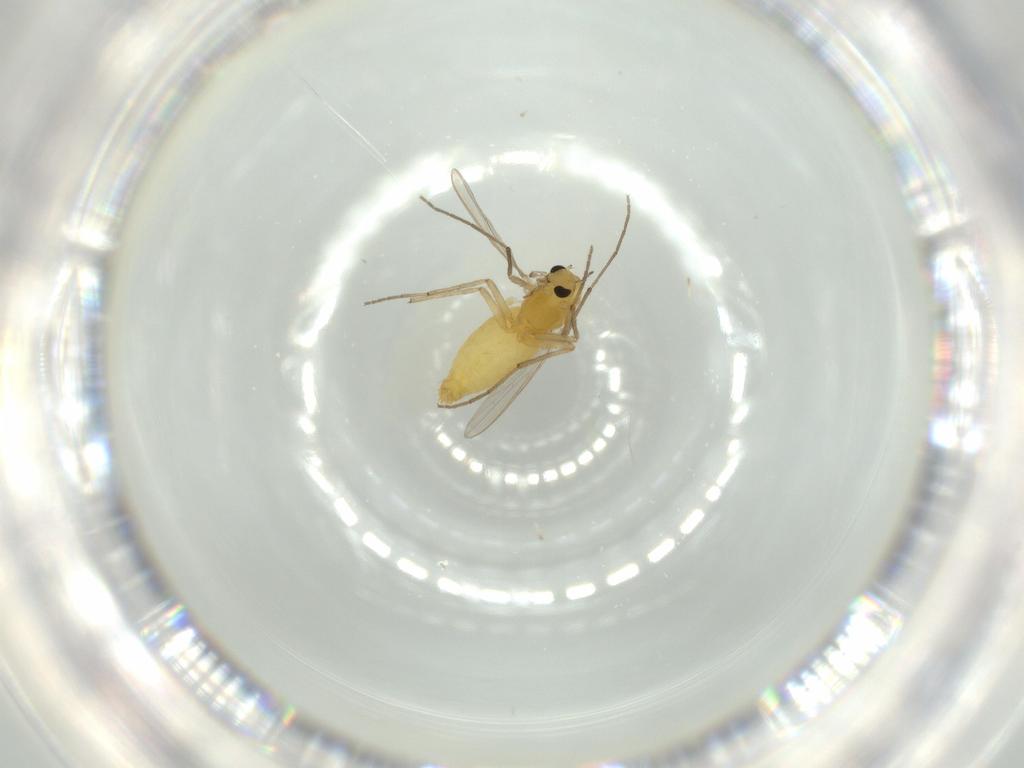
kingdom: Animalia
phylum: Arthropoda
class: Insecta
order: Diptera
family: Chironomidae
